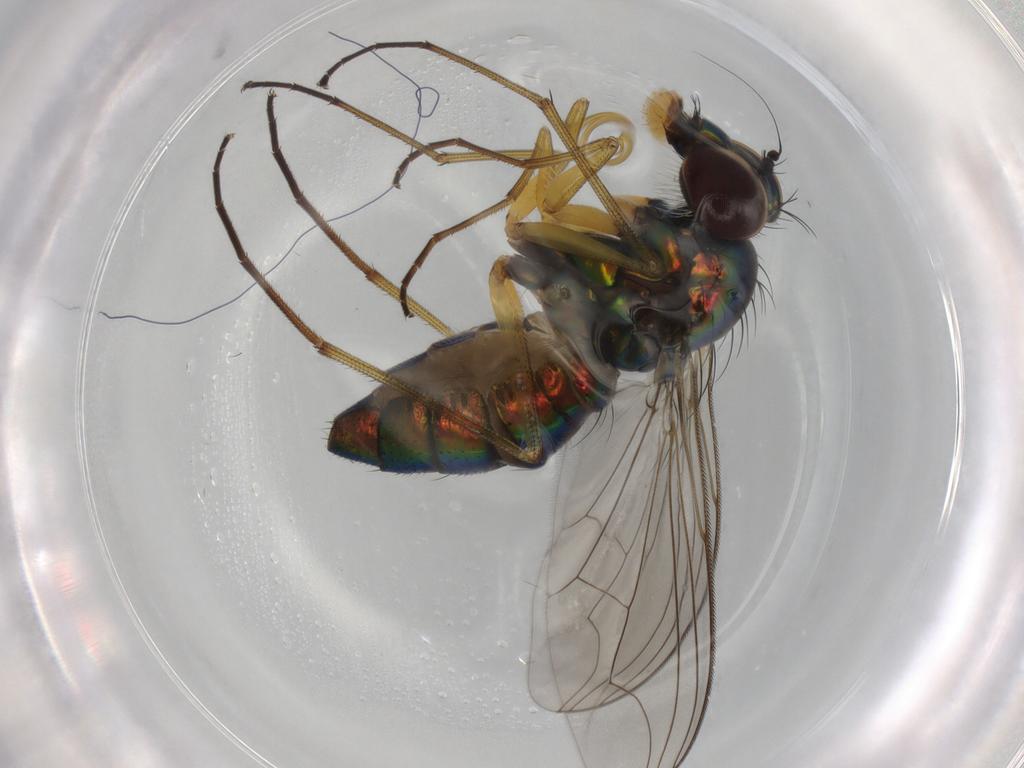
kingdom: Animalia
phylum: Arthropoda
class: Insecta
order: Diptera
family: Dolichopodidae
